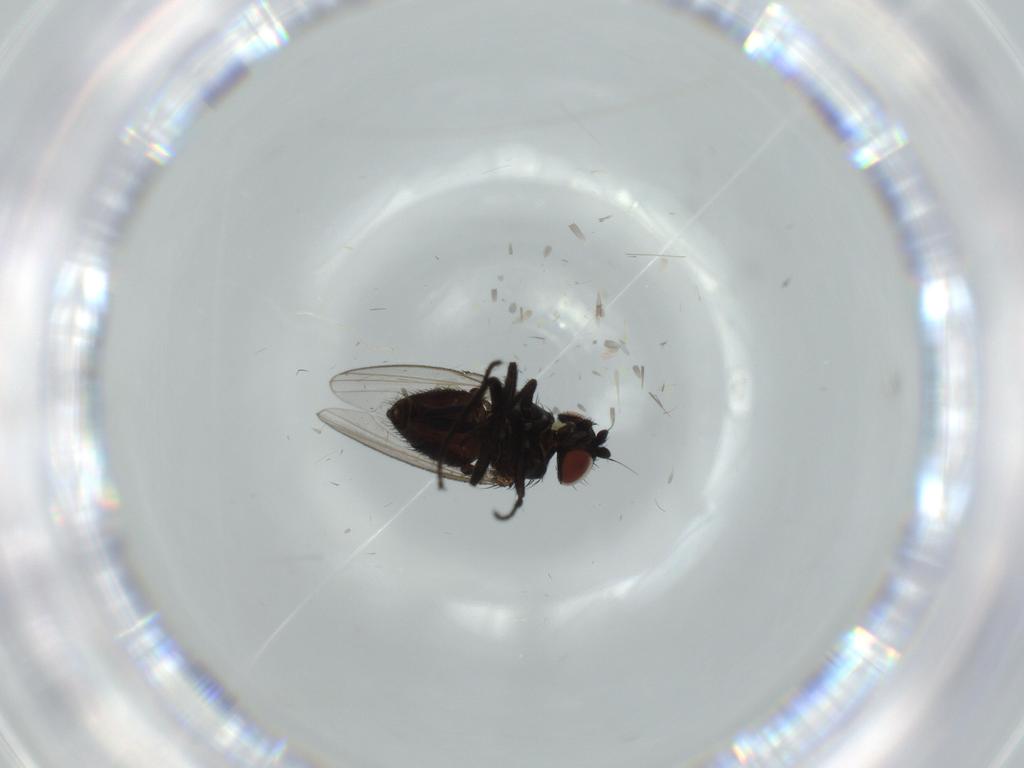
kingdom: Animalia
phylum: Arthropoda
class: Insecta
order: Diptera
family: Milichiidae
